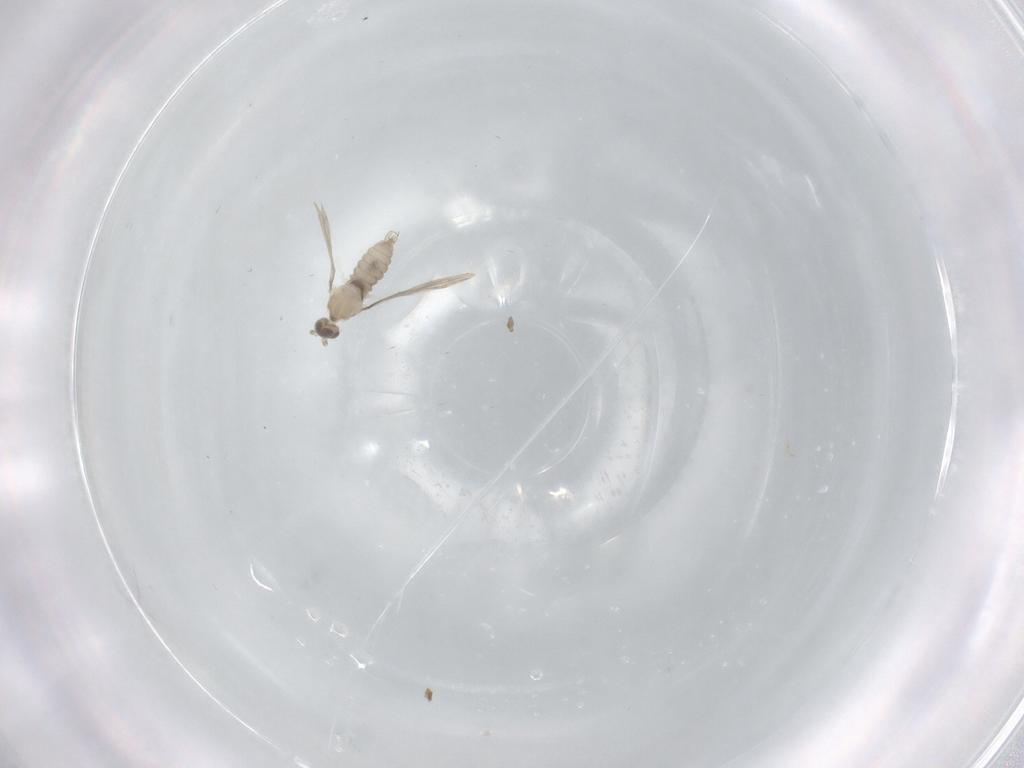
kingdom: Animalia
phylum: Arthropoda
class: Insecta
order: Diptera
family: Cecidomyiidae
